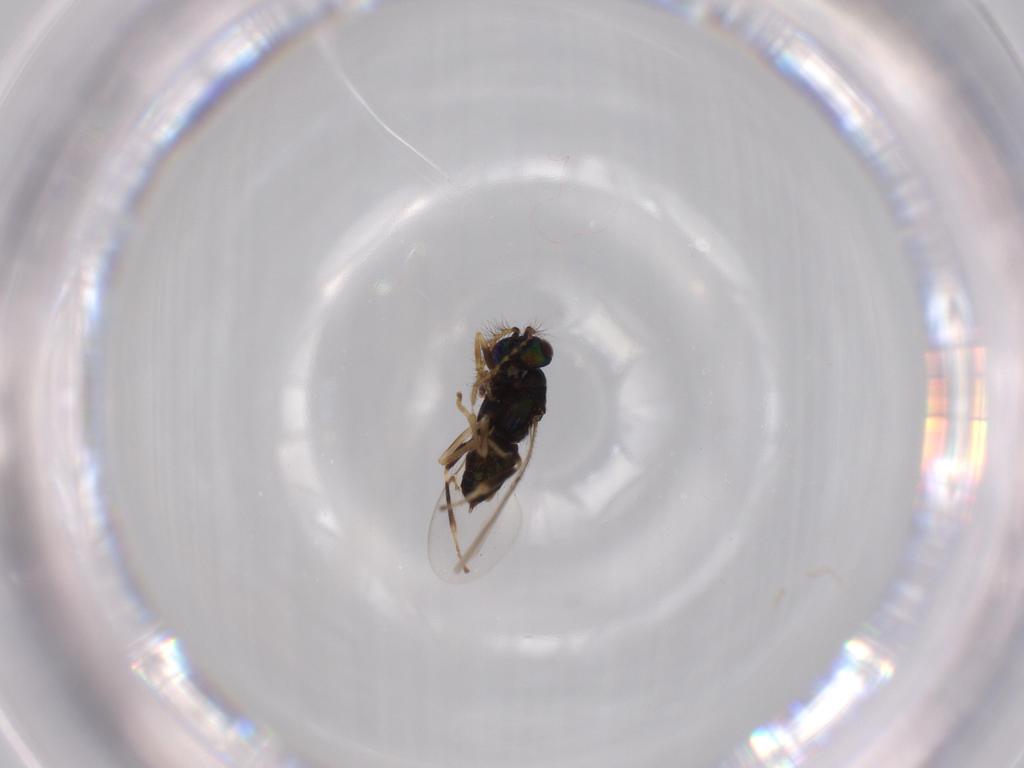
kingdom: Animalia
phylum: Arthropoda
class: Insecta
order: Hymenoptera
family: Encyrtidae
